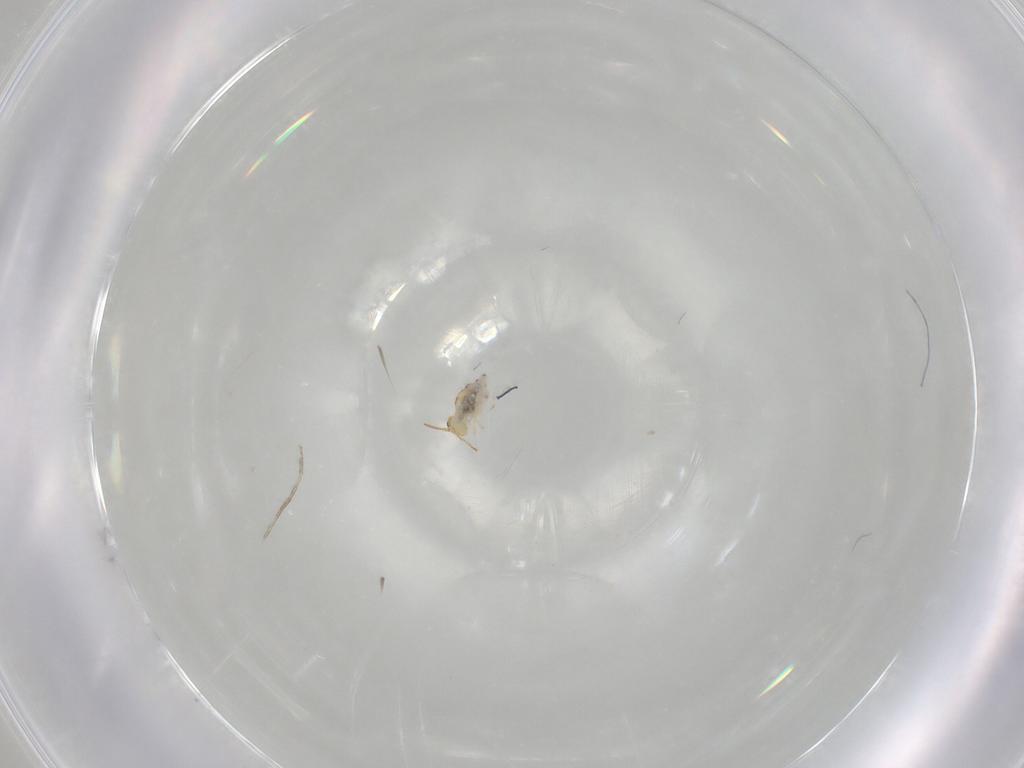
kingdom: Animalia
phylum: Arthropoda
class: Collembola
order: Symphypleona
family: Bourletiellidae
